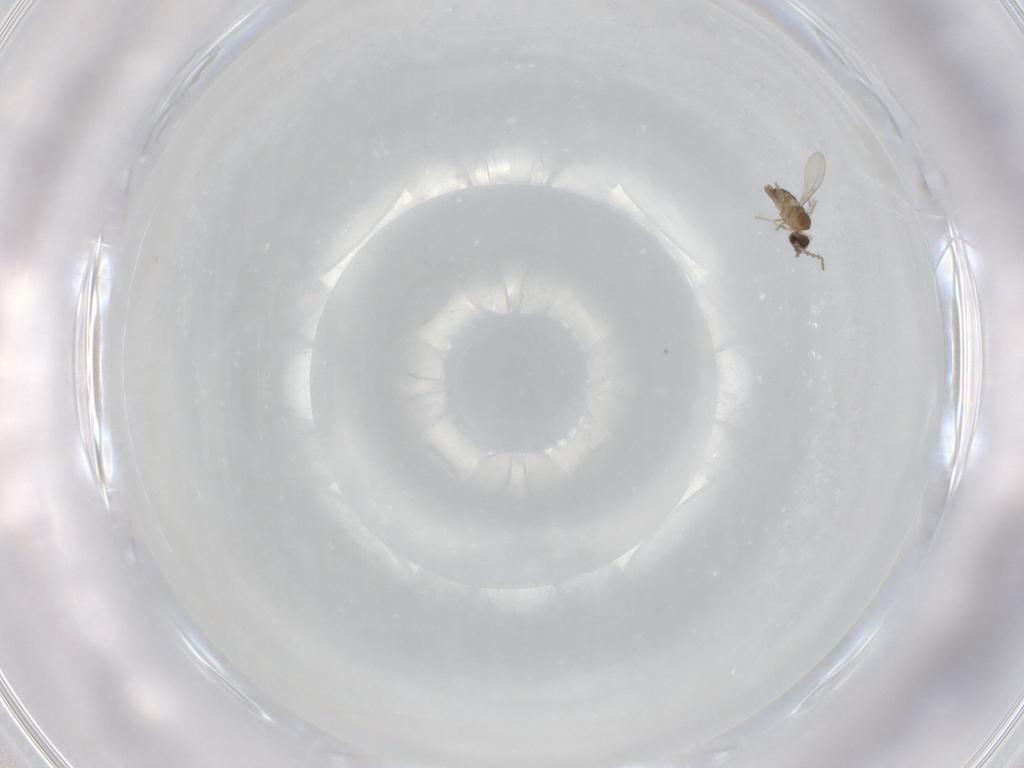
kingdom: Animalia
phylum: Arthropoda
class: Insecta
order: Diptera
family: Cecidomyiidae
